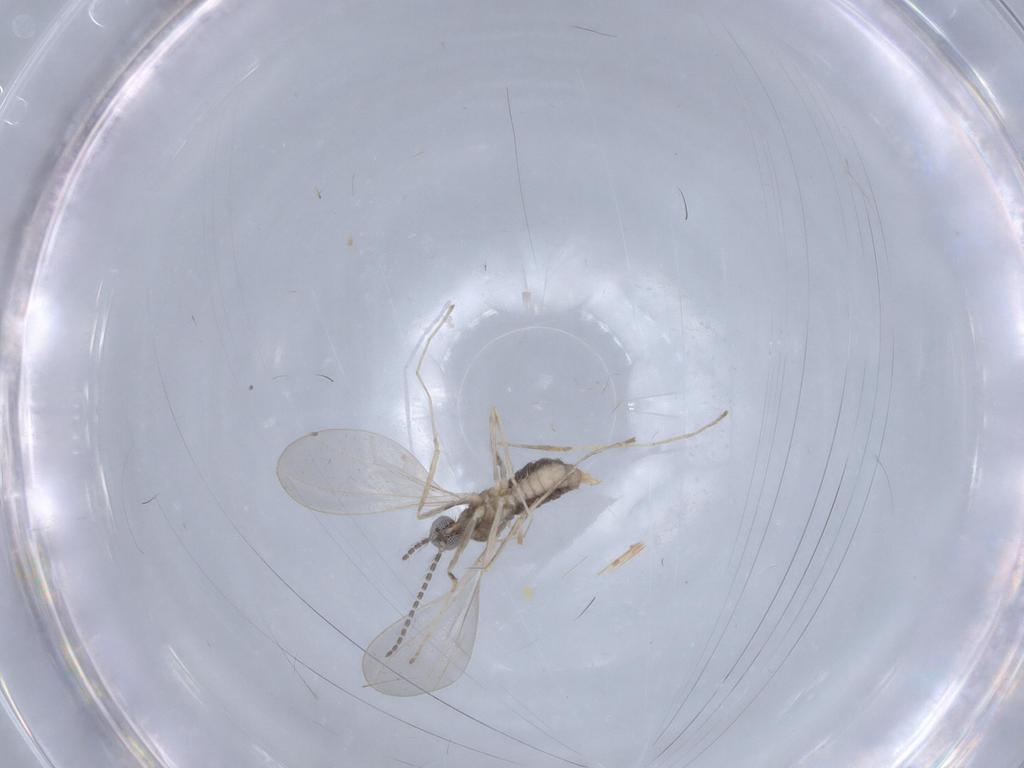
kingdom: Animalia
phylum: Arthropoda
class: Insecta
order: Diptera
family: Cecidomyiidae
